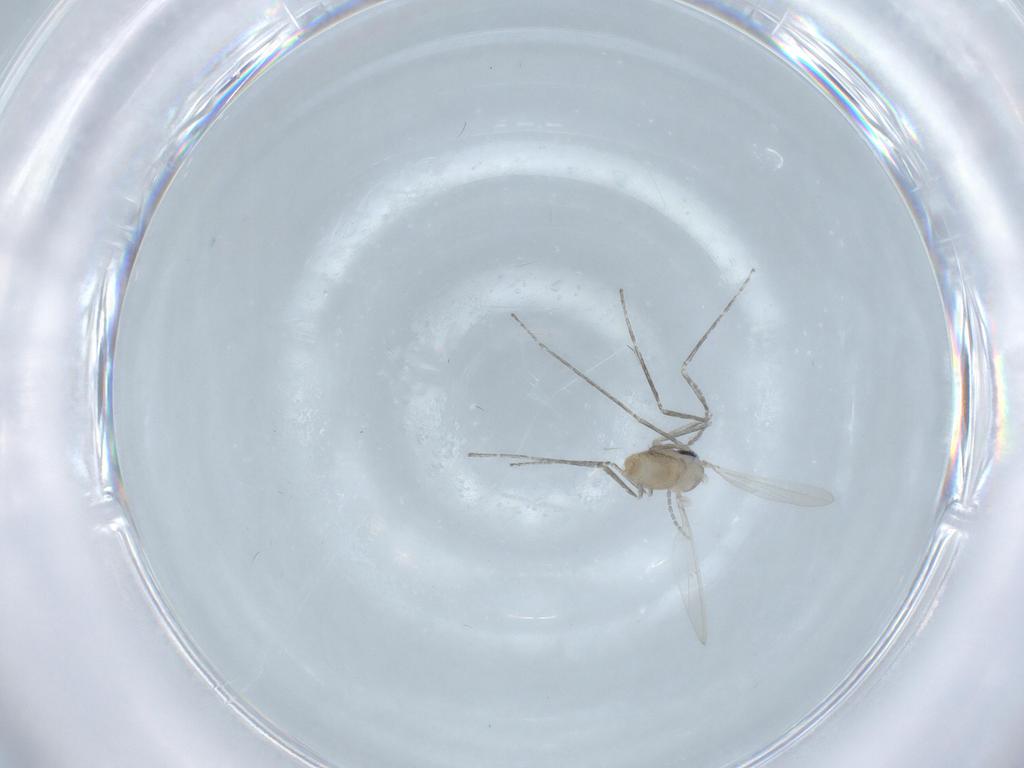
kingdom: Animalia
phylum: Arthropoda
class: Insecta
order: Diptera
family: Cecidomyiidae
